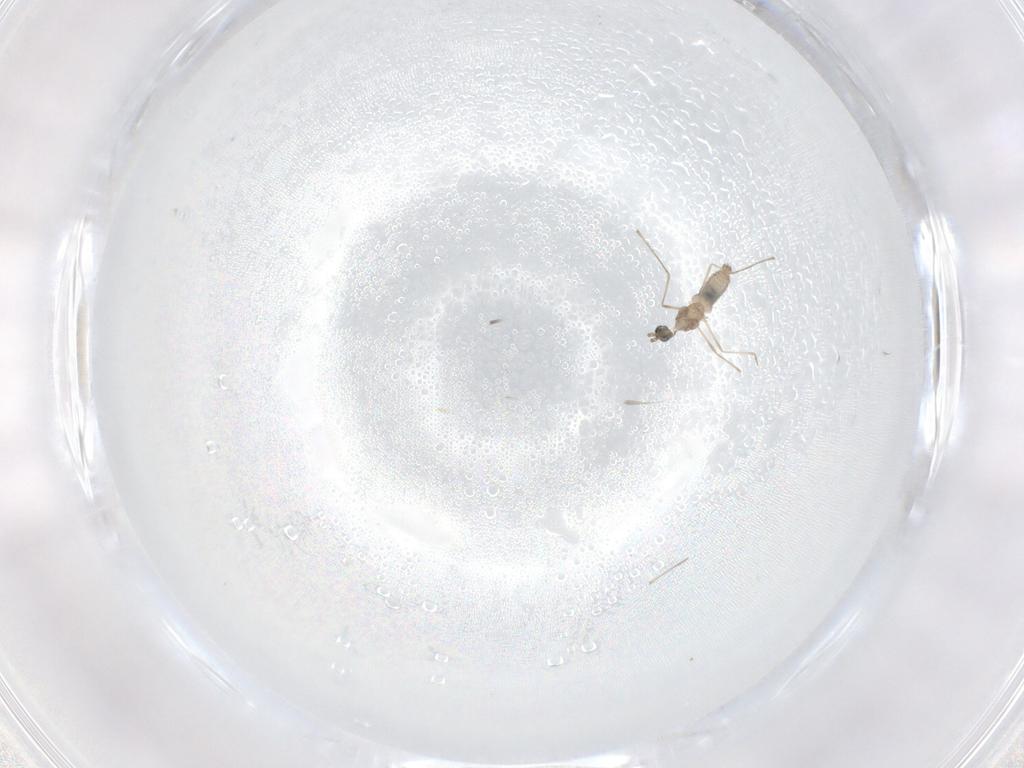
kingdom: Animalia
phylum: Arthropoda
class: Insecta
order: Diptera
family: Cecidomyiidae
